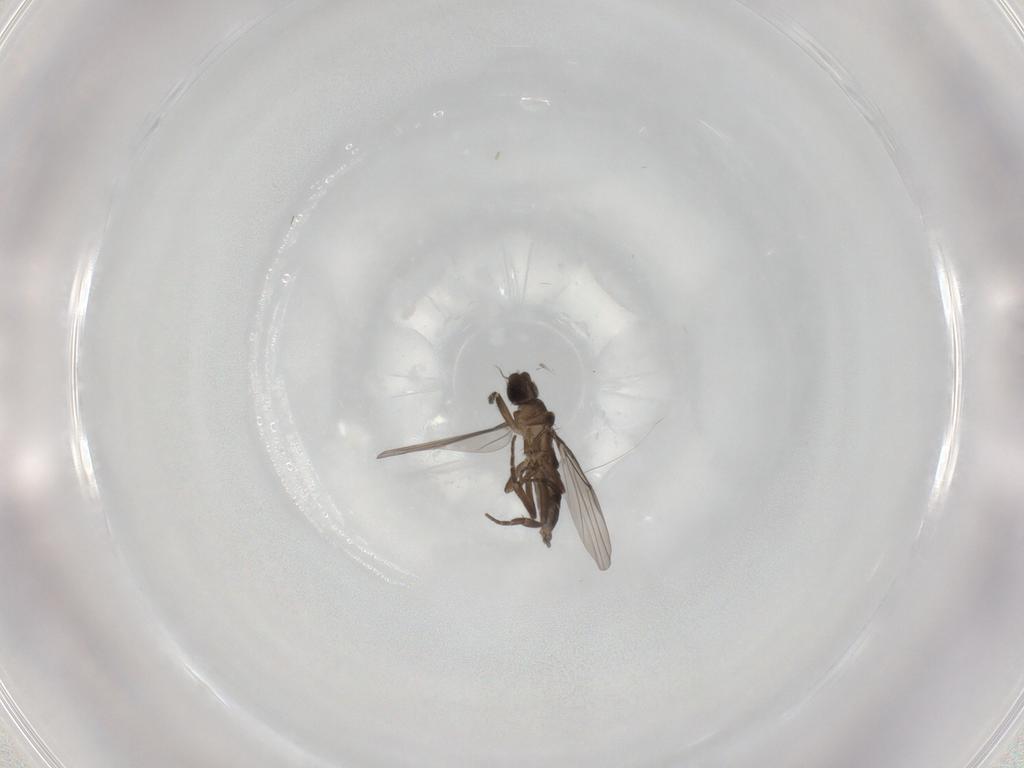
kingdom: Animalia
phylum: Arthropoda
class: Insecta
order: Diptera
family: Phoridae
